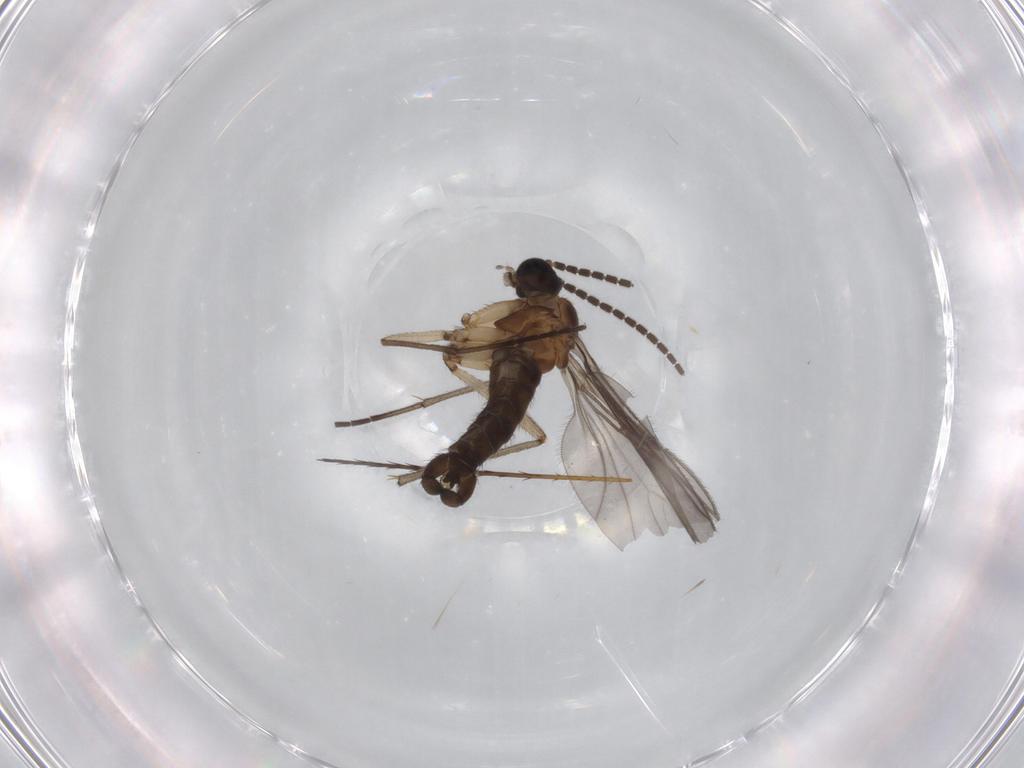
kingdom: Animalia
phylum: Arthropoda
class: Insecta
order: Diptera
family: Sciaridae
